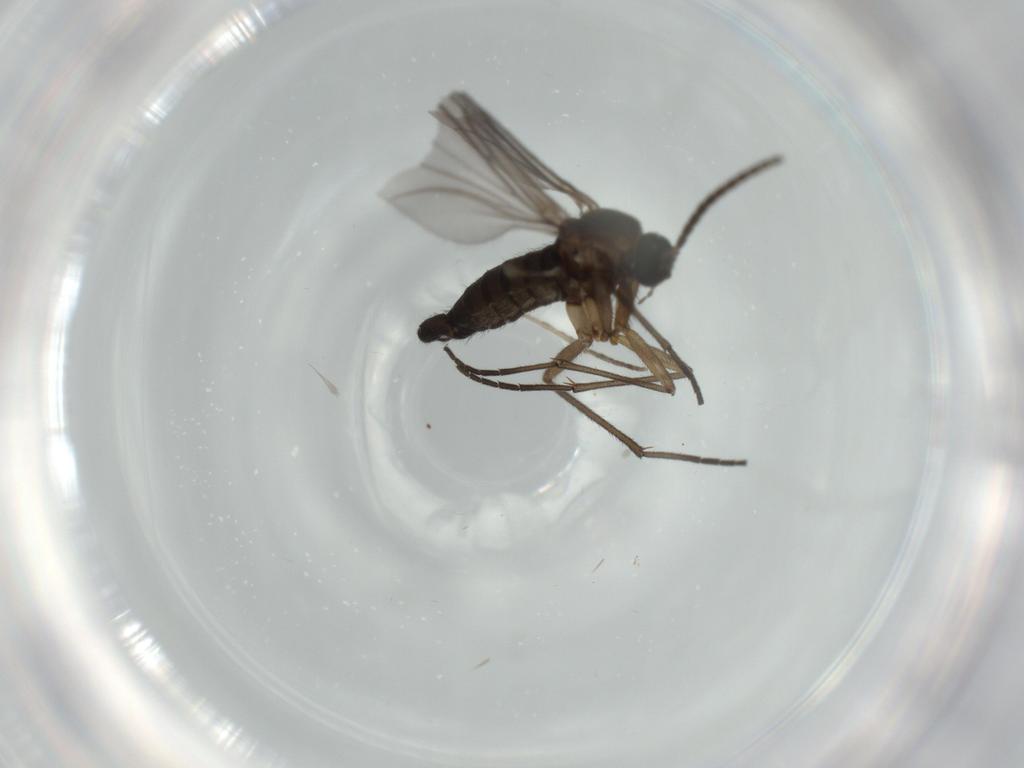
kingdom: Animalia
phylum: Arthropoda
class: Insecta
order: Diptera
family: Sciaridae
